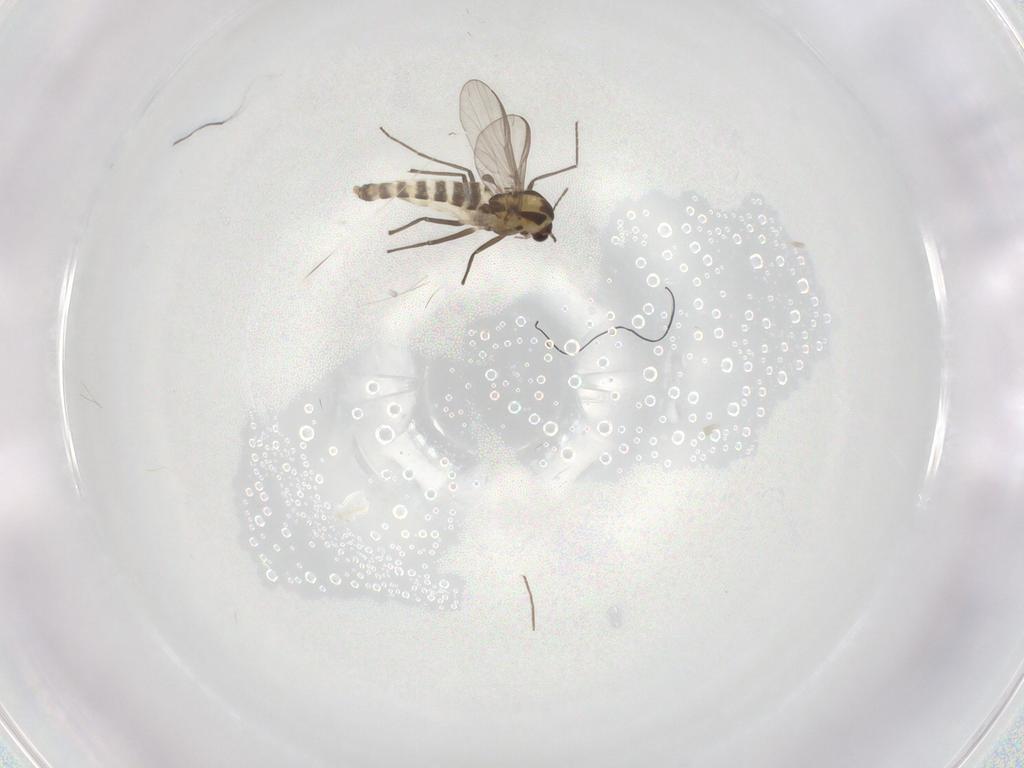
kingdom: Animalia
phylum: Arthropoda
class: Insecta
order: Diptera
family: Chironomidae
